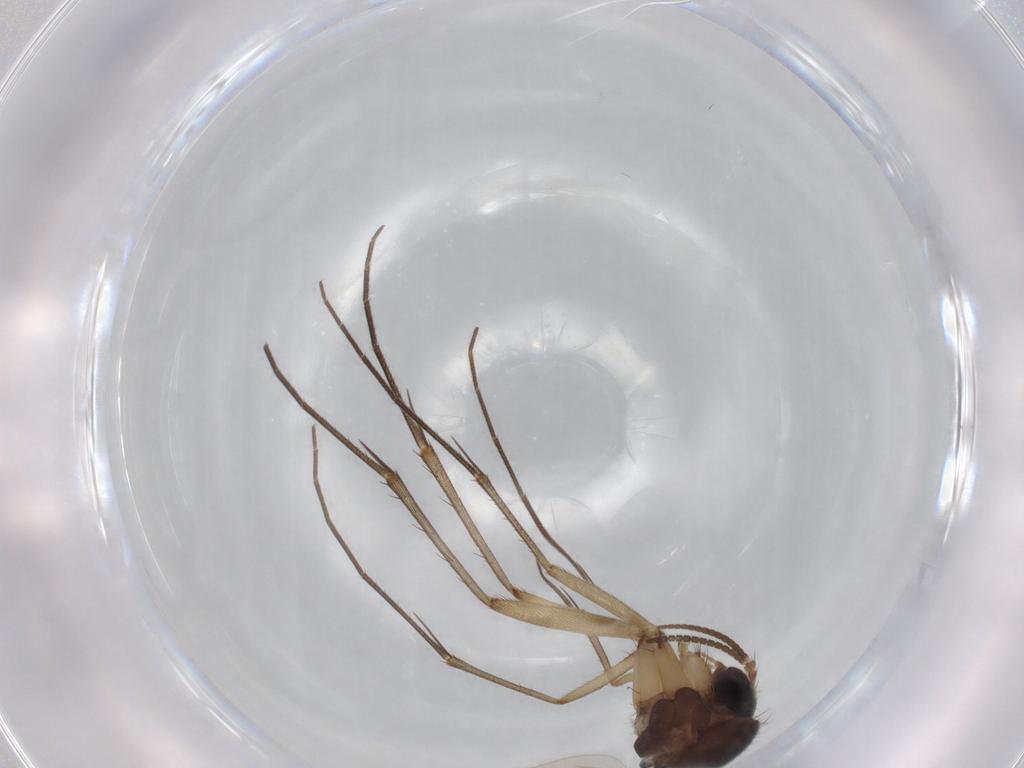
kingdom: Animalia
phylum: Arthropoda
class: Insecta
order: Diptera
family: Mycetophilidae
